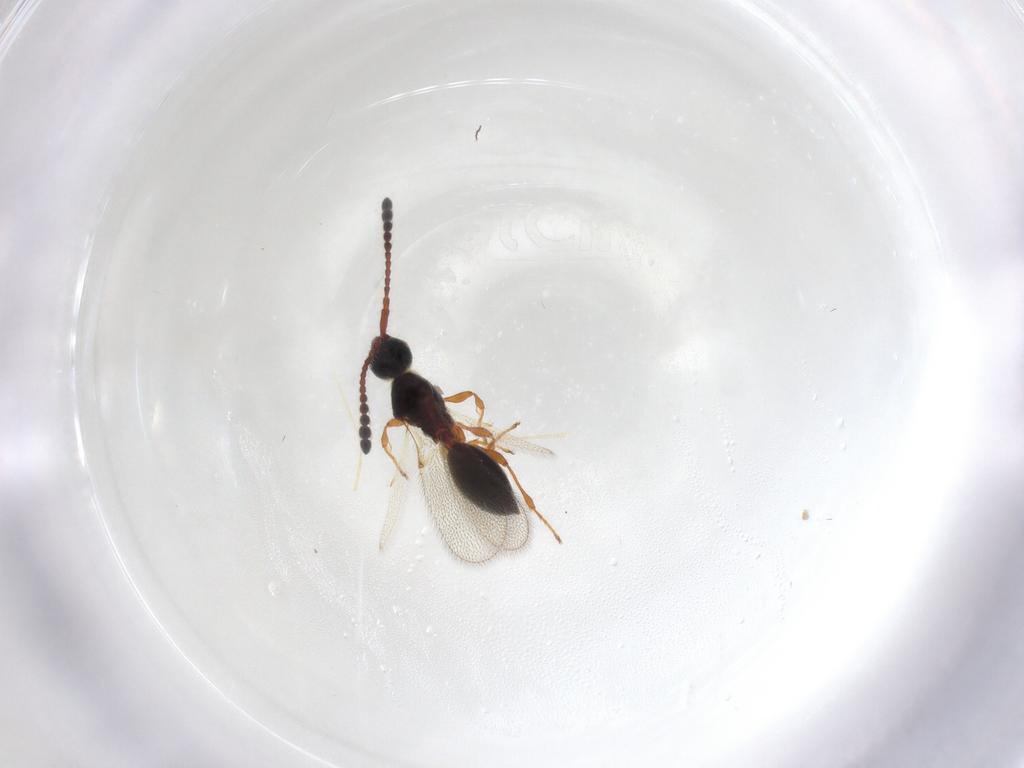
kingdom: Animalia
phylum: Arthropoda
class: Insecta
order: Hymenoptera
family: Diapriidae
